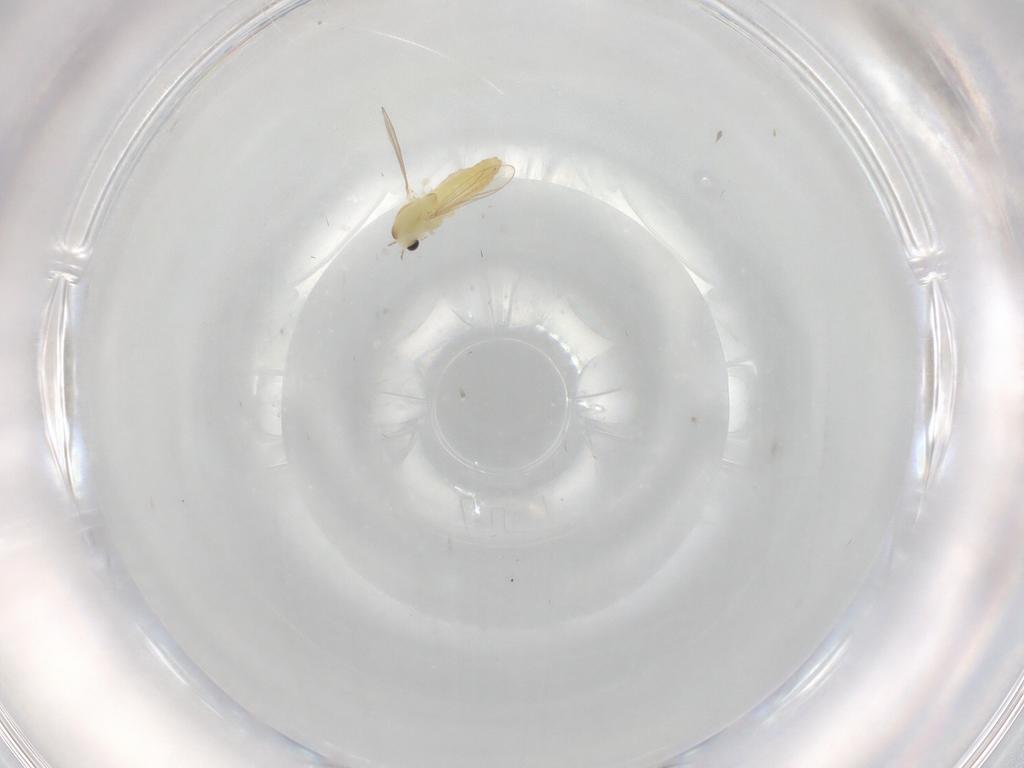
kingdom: Animalia
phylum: Arthropoda
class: Insecta
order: Diptera
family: Chironomidae
